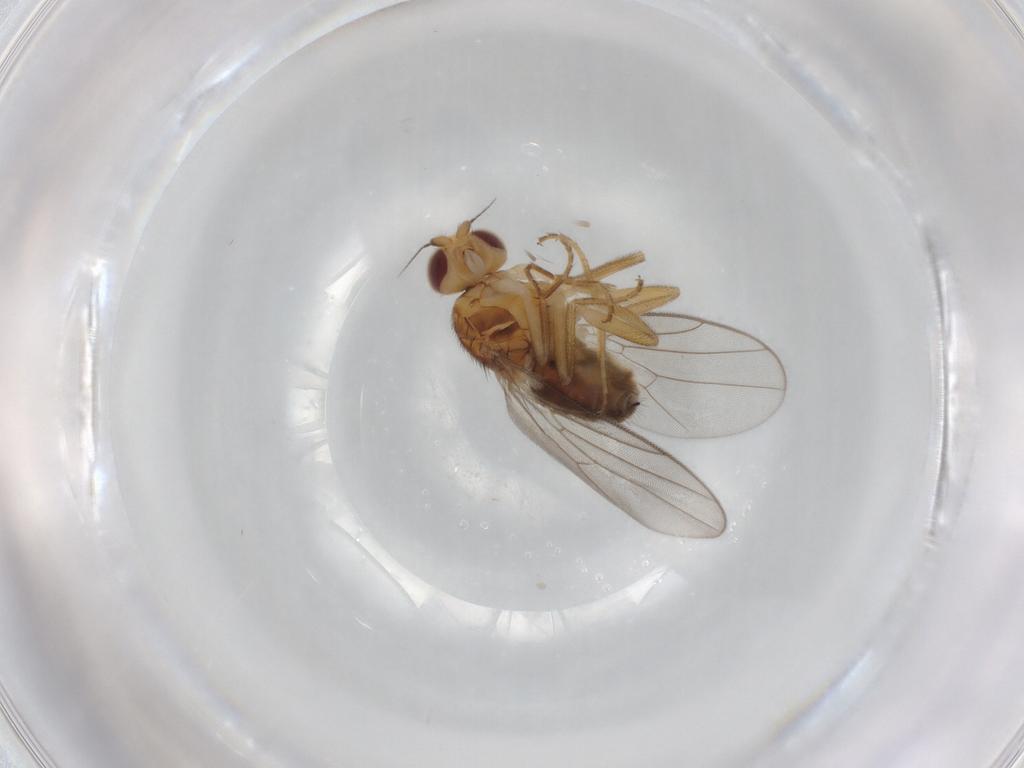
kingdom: Animalia
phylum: Arthropoda
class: Insecta
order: Diptera
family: Chloropidae
